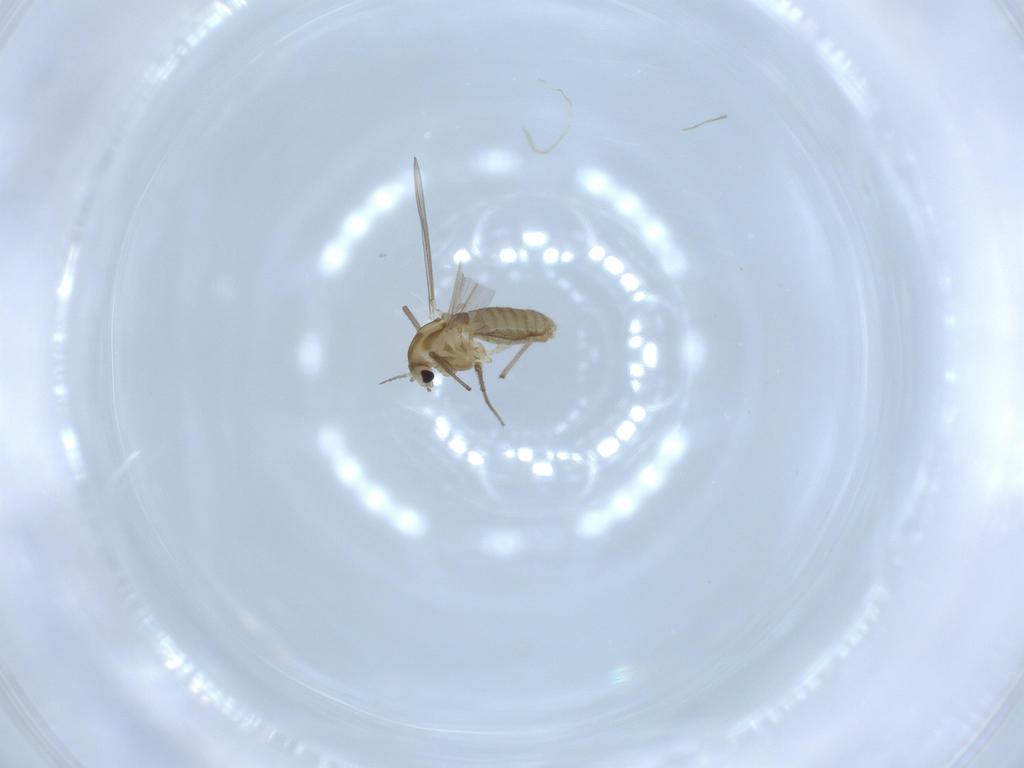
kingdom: Animalia
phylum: Arthropoda
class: Insecta
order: Diptera
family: Chironomidae
